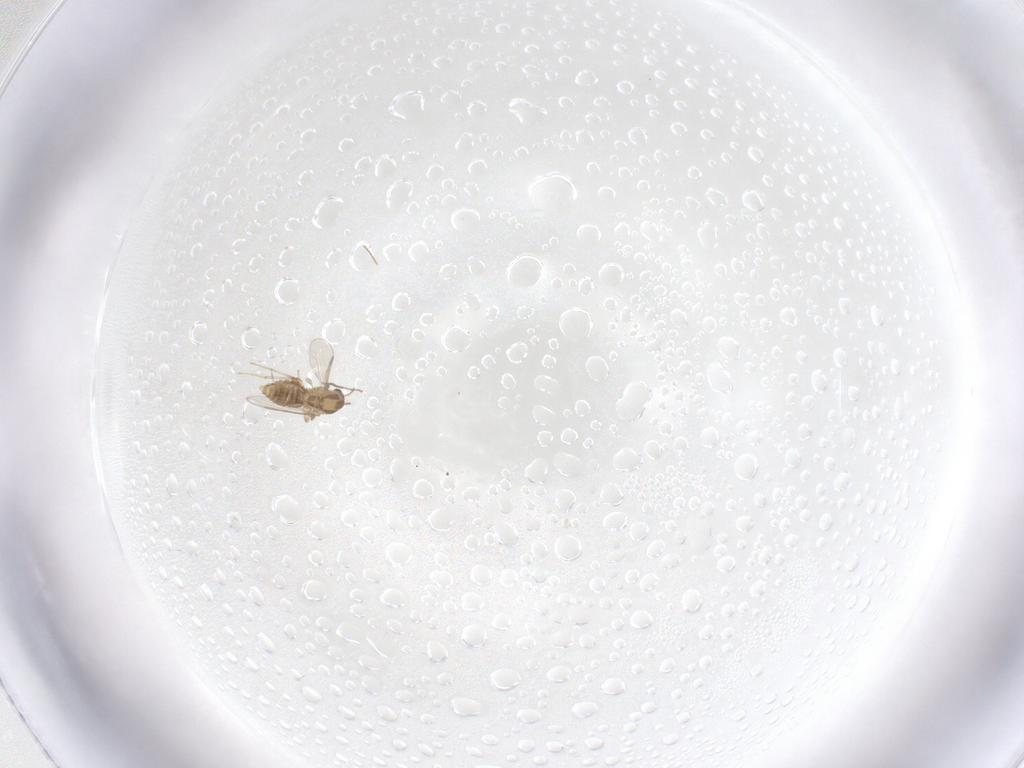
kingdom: Animalia
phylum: Arthropoda
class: Insecta
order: Diptera
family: Chironomidae
